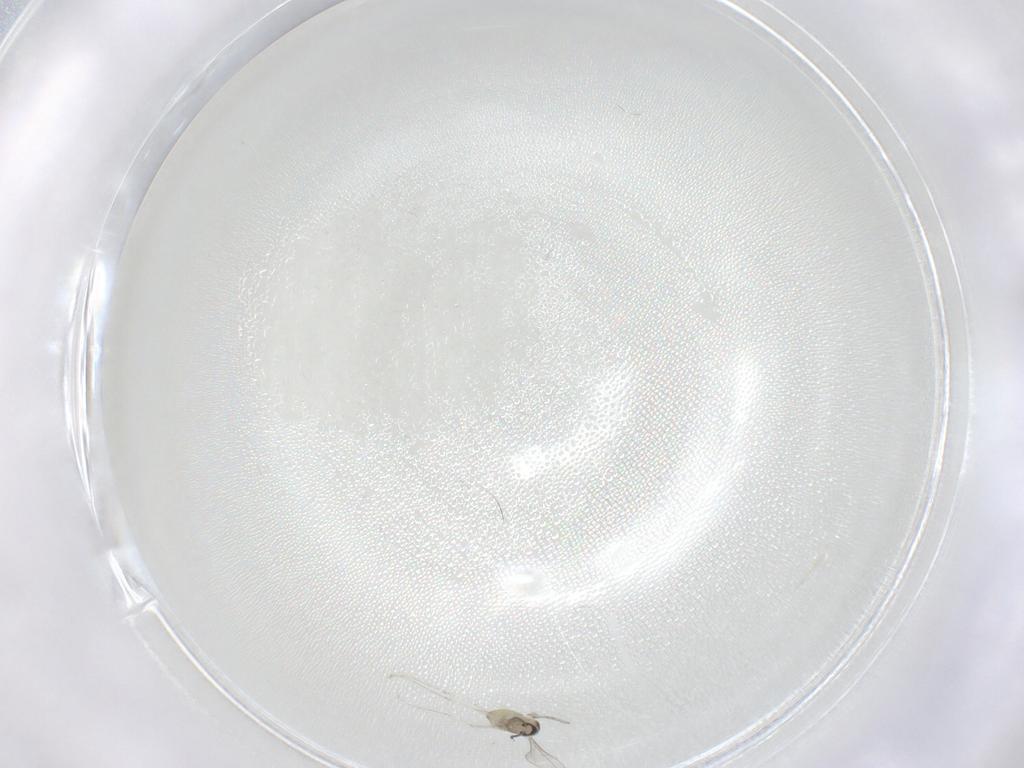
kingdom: Animalia
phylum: Arthropoda
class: Insecta
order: Diptera
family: Cecidomyiidae
